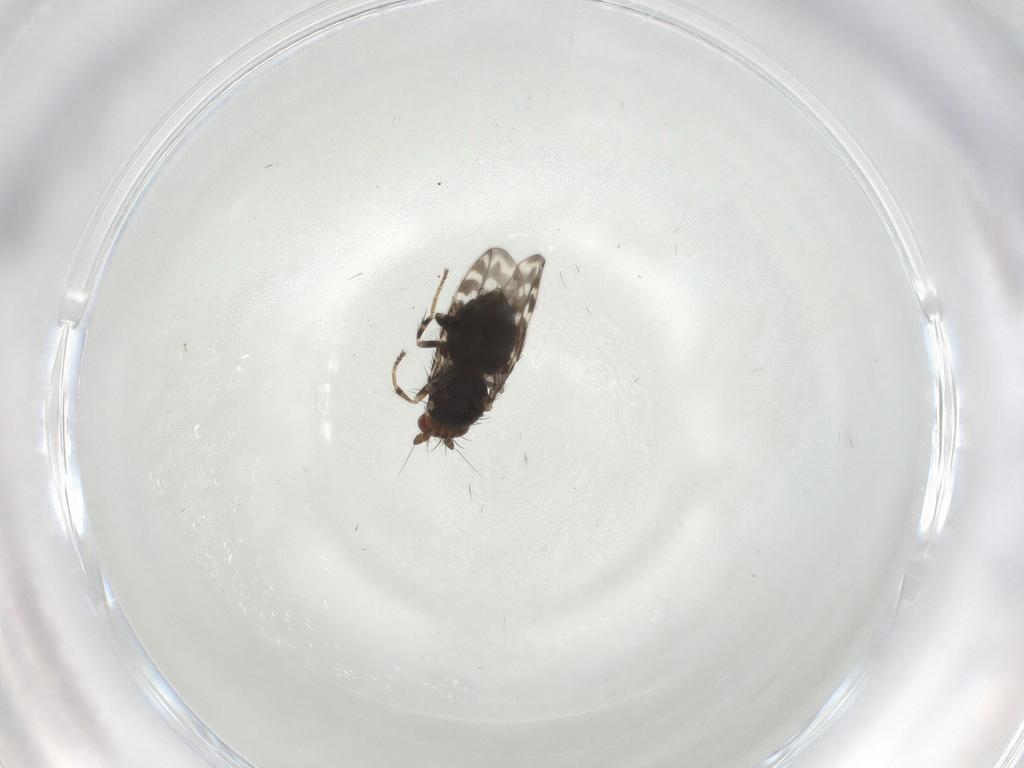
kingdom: Animalia
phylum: Arthropoda
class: Insecta
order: Diptera
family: Sphaeroceridae
